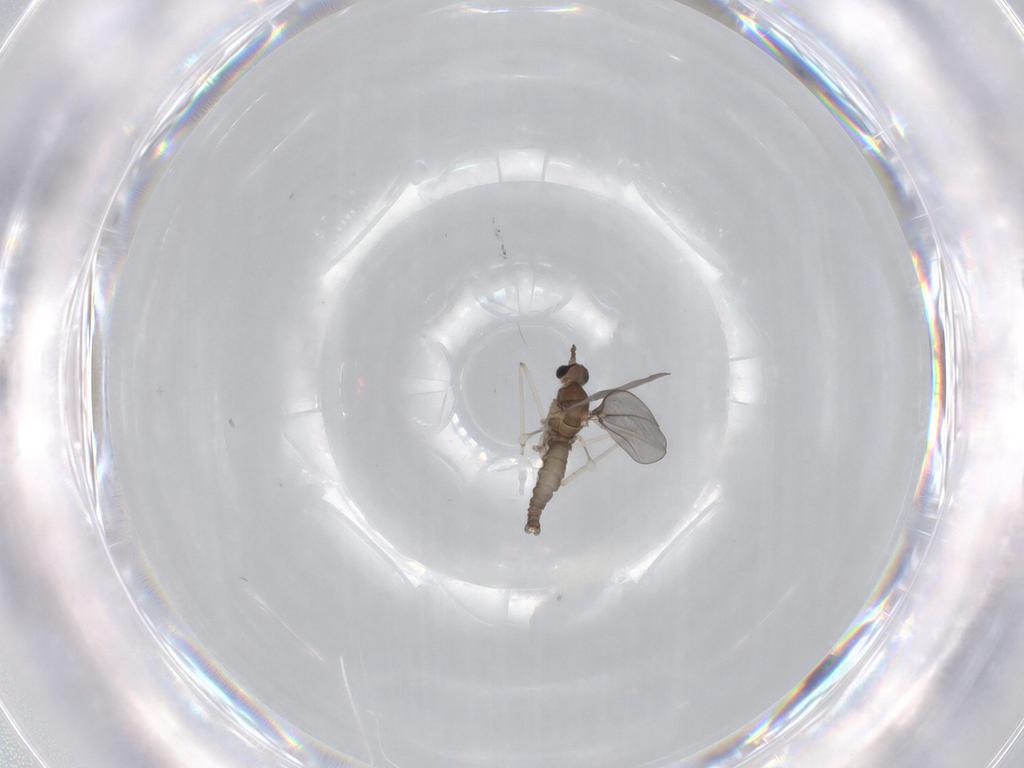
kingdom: Animalia
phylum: Arthropoda
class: Insecta
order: Diptera
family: Cecidomyiidae
